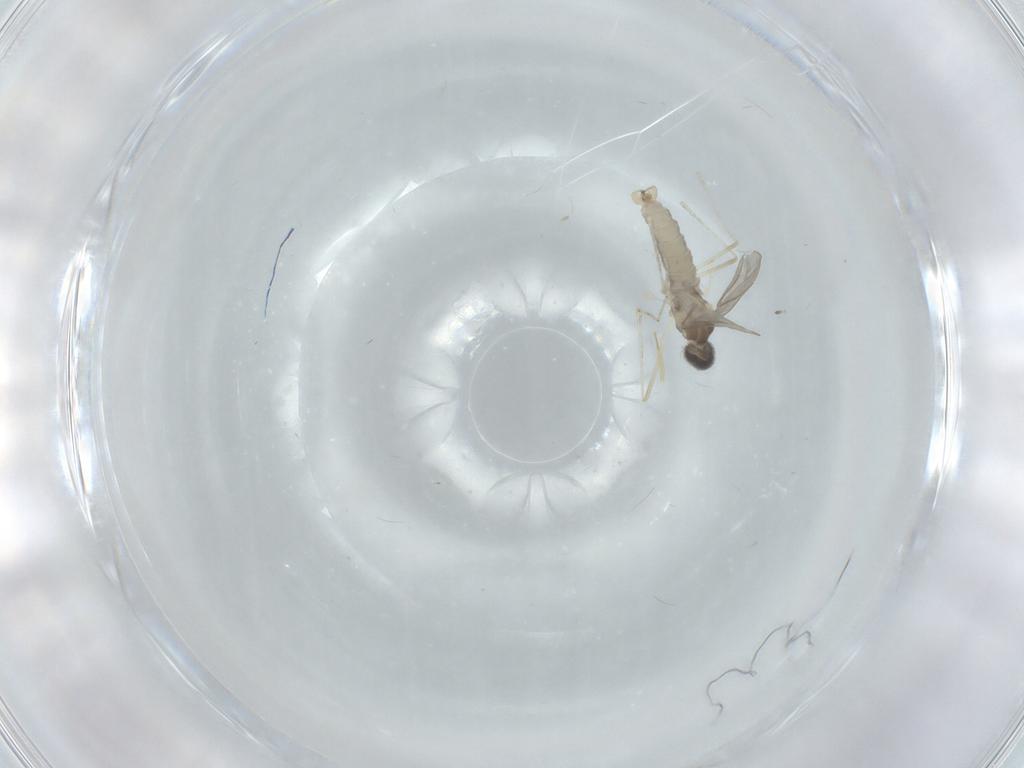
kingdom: Animalia
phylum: Arthropoda
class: Insecta
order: Diptera
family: Cecidomyiidae
